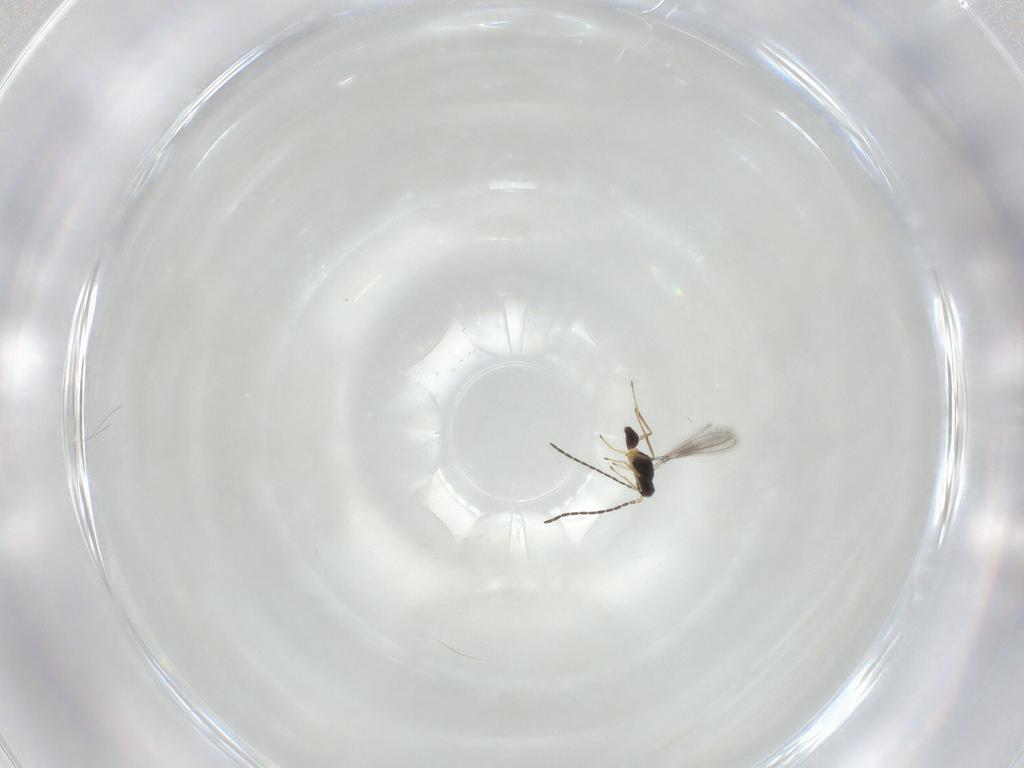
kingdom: Animalia
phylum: Arthropoda
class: Insecta
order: Hymenoptera
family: Mymaridae
